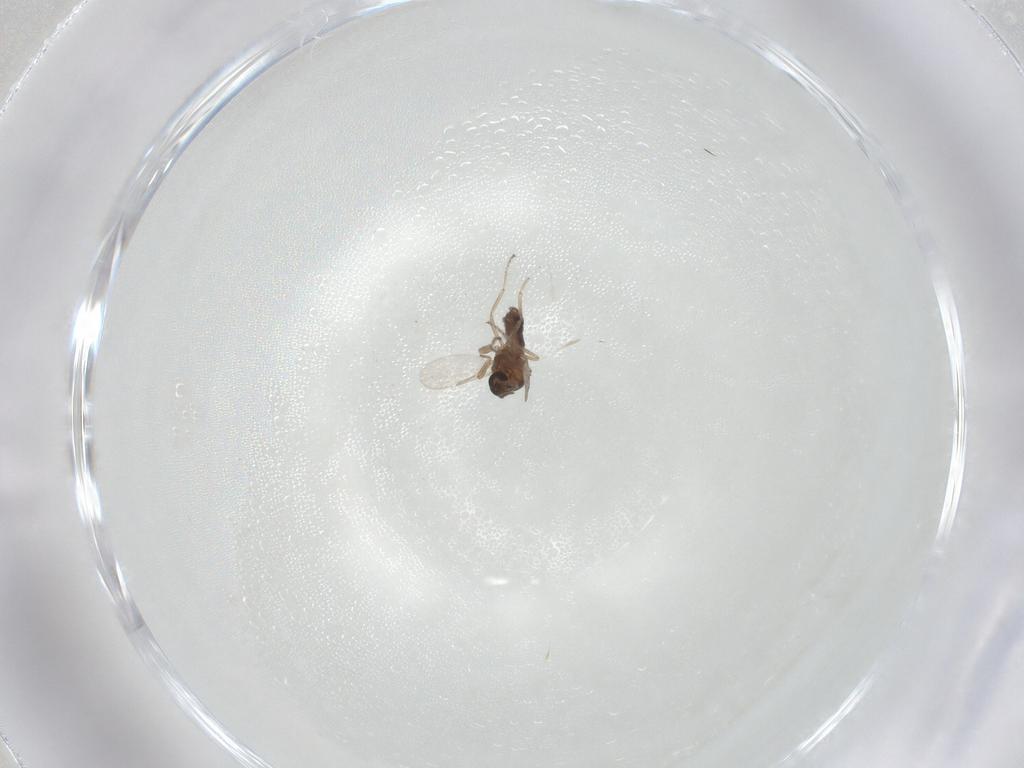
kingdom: Animalia
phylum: Arthropoda
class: Insecta
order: Diptera
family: Ceratopogonidae
